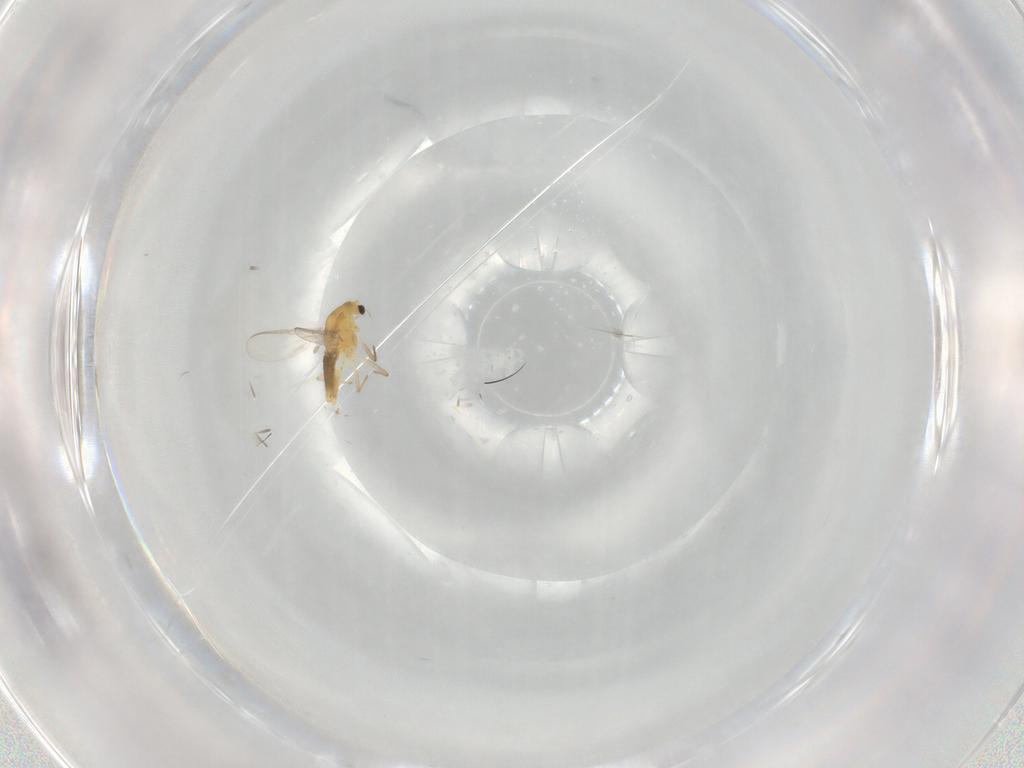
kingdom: Animalia
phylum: Arthropoda
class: Insecta
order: Diptera
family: Chironomidae
